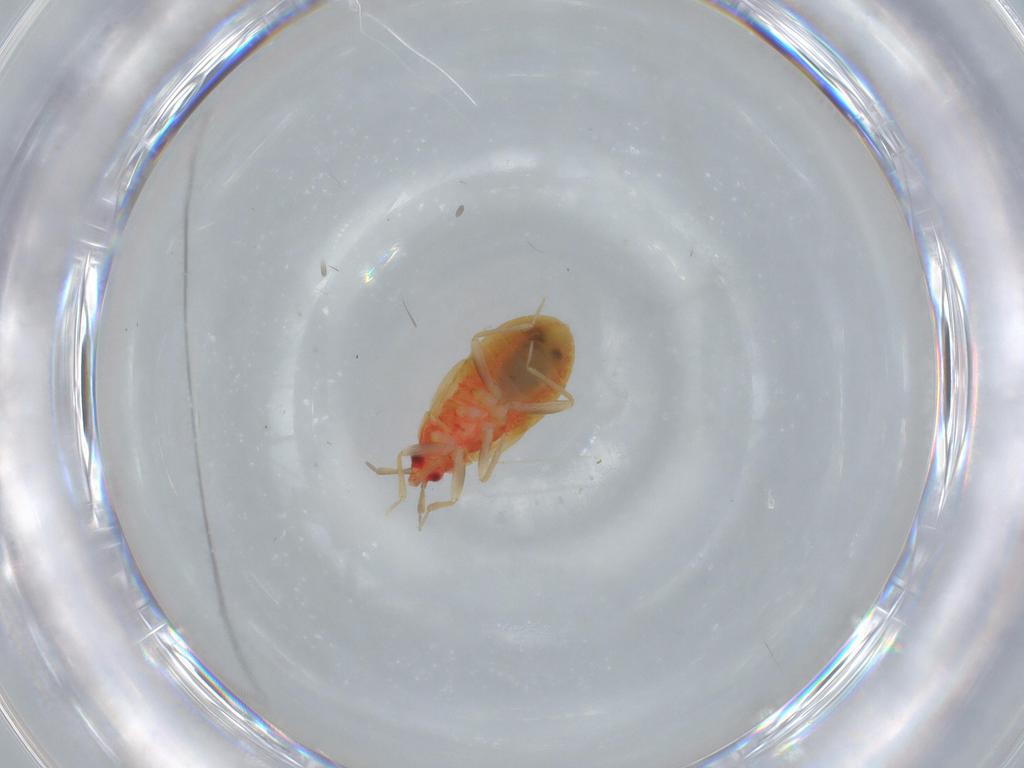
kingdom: Animalia
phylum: Arthropoda
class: Insecta
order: Hemiptera
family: Anthocoridae
